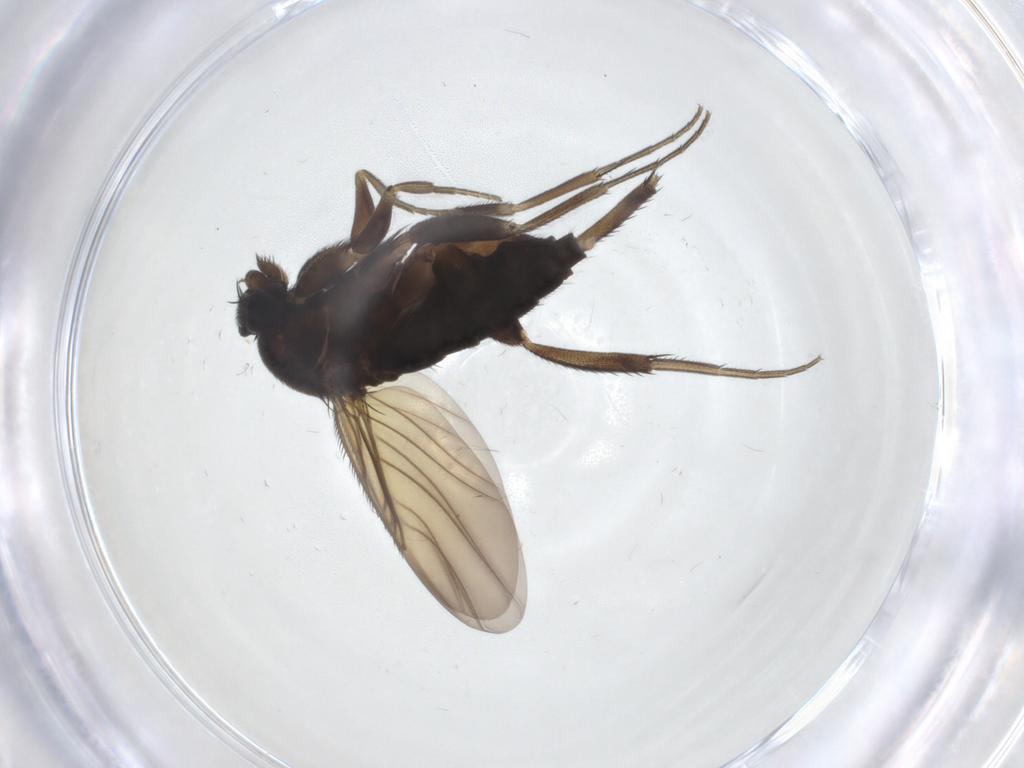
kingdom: Animalia
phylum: Arthropoda
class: Insecta
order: Diptera
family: Phoridae
